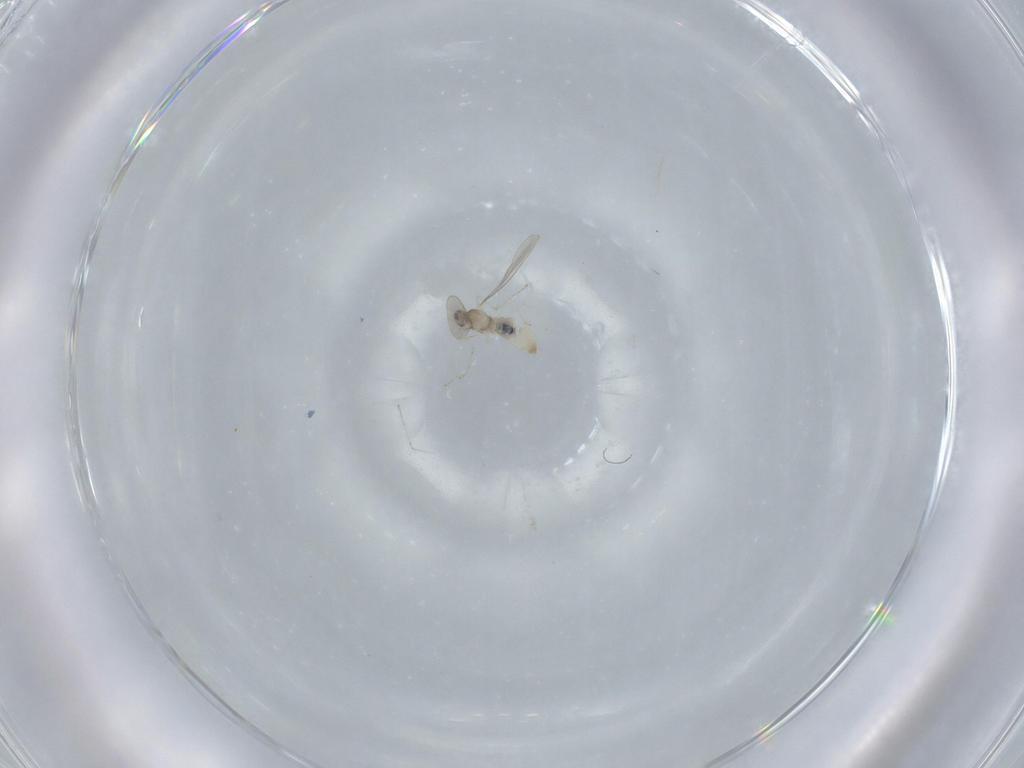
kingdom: Animalia
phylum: Arthropoda
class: Insecta
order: Diptera
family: Cecidomyiidae
